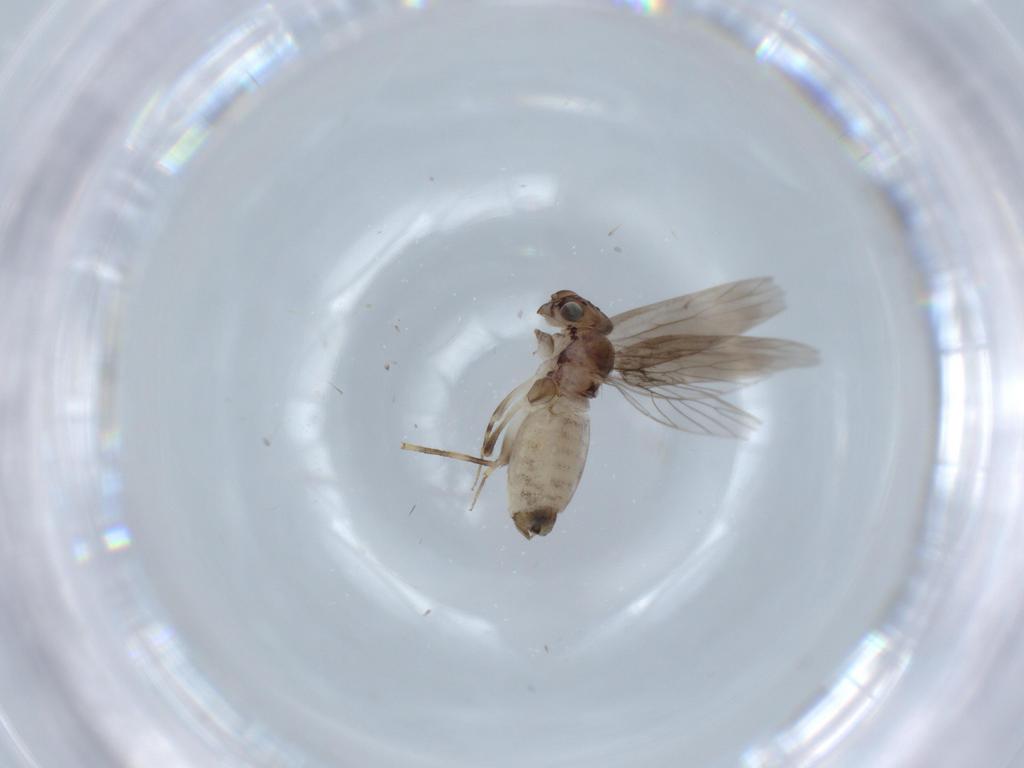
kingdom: Animalia
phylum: Arthropoda
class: Insecta
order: Psocodea
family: Lepidopsocidae
